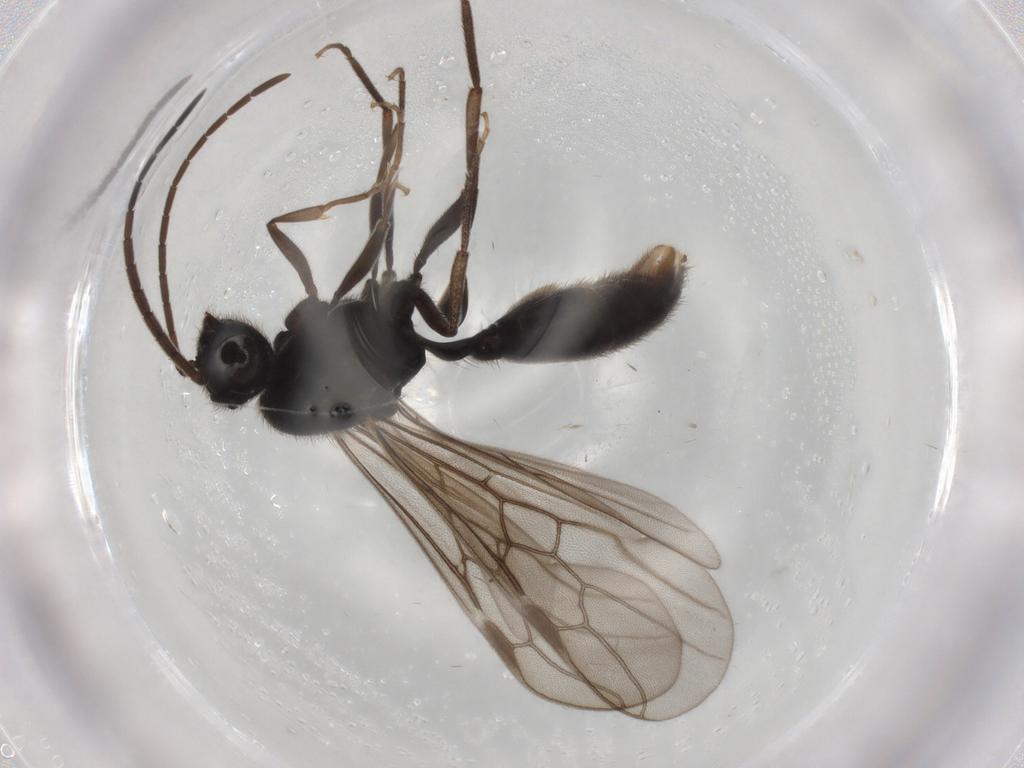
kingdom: Animalia
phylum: Arthropoda
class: Insecta
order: Hymenoptera
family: Formicidae
